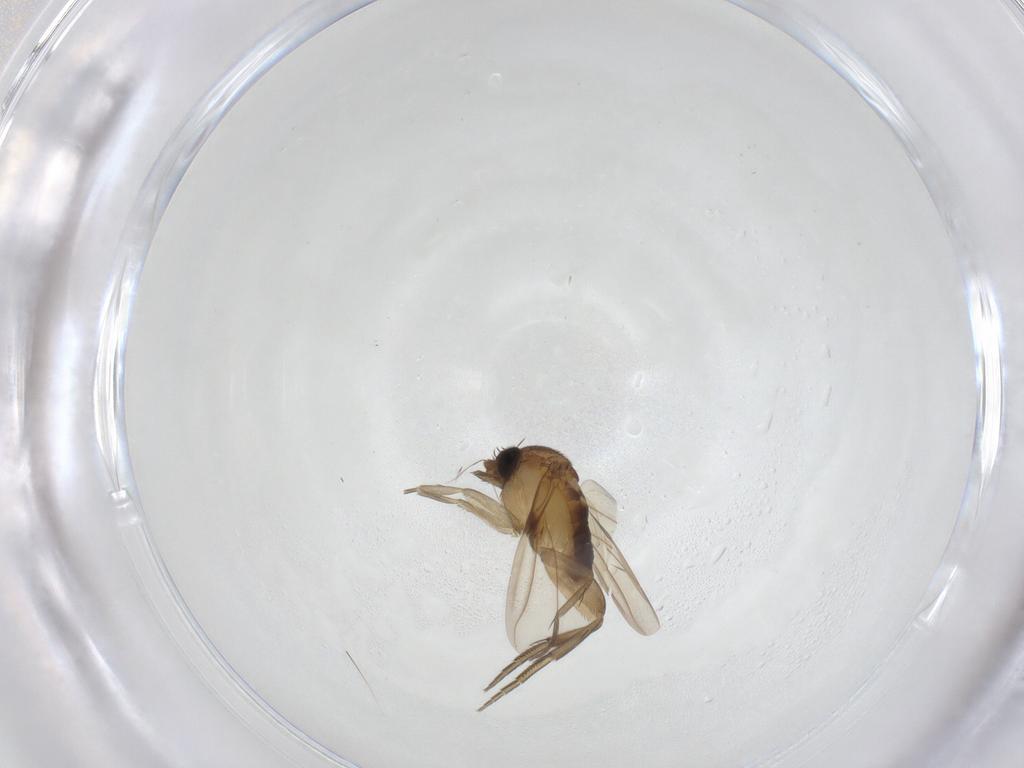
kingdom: Animalia
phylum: Arthropoda
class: Insecta
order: Diptera
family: Phoridae
